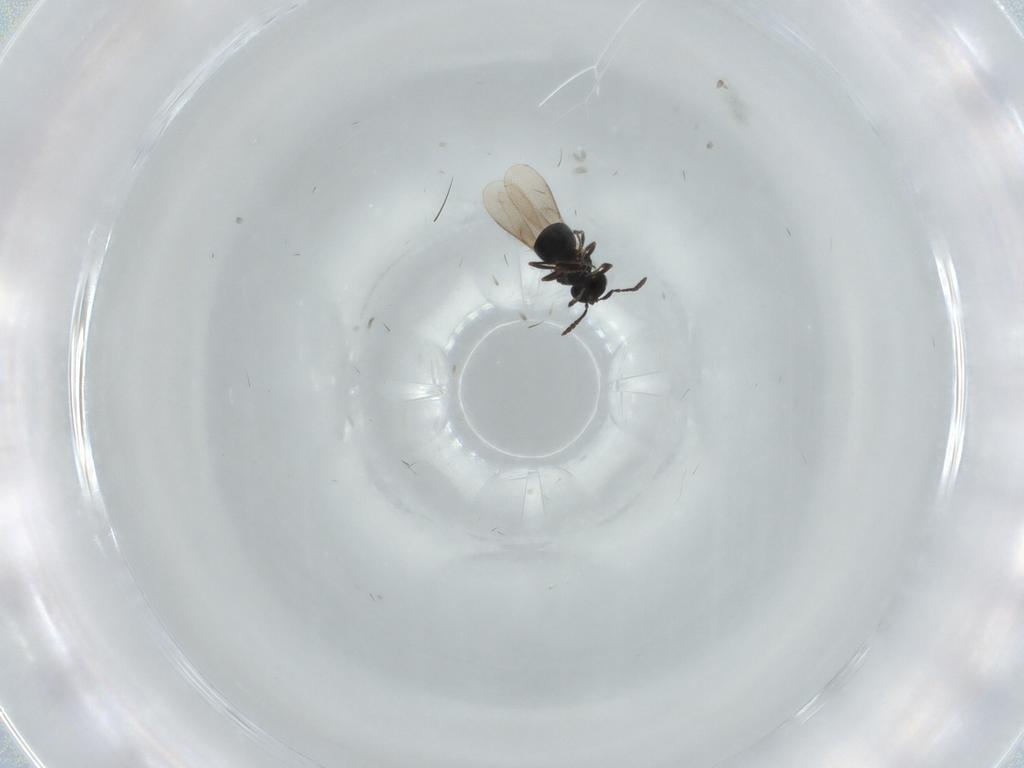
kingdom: Animalia
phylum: Arthropoda
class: Insecta
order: Hymenoptera
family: Scelionidae
